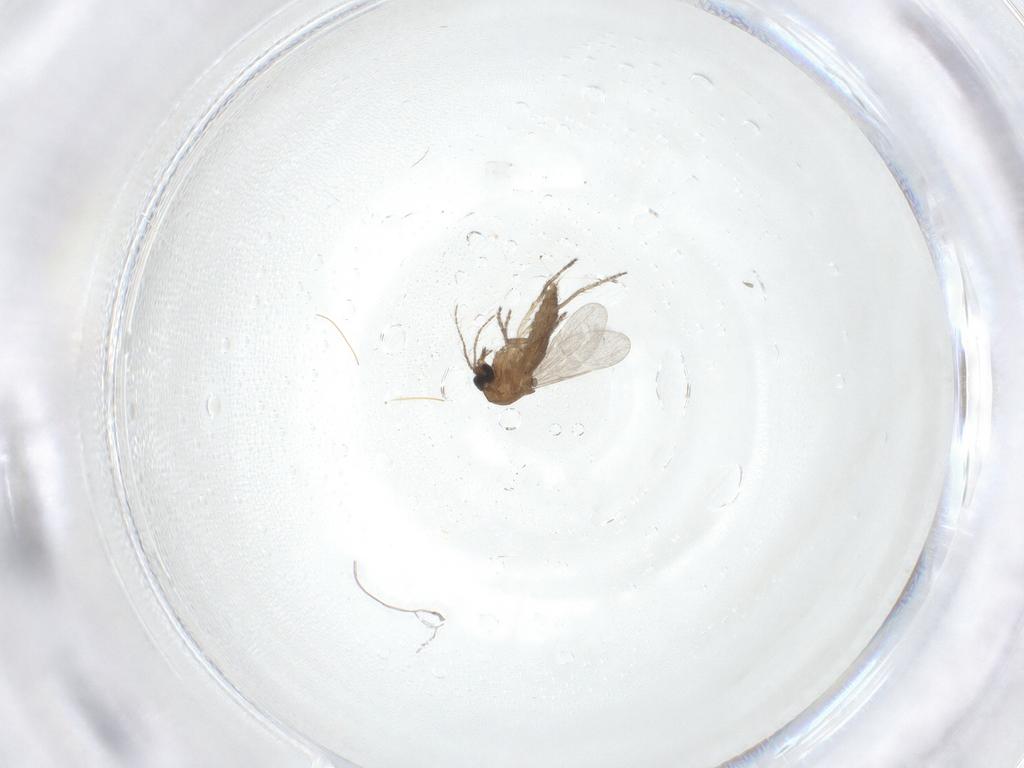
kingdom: Animalia
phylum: Arthropoda
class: Insecta
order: Diptera
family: Ceratopogonidae
